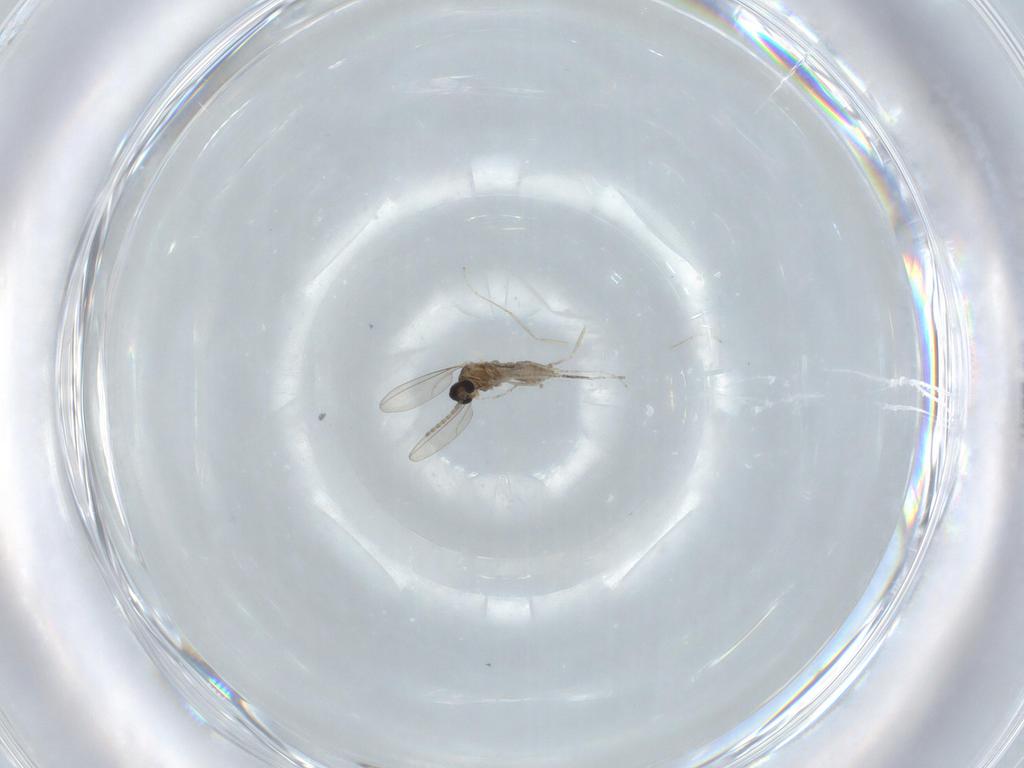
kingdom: Animalia
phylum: Arthropoda
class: Insecta
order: Diptera
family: Cecidomyiidae
